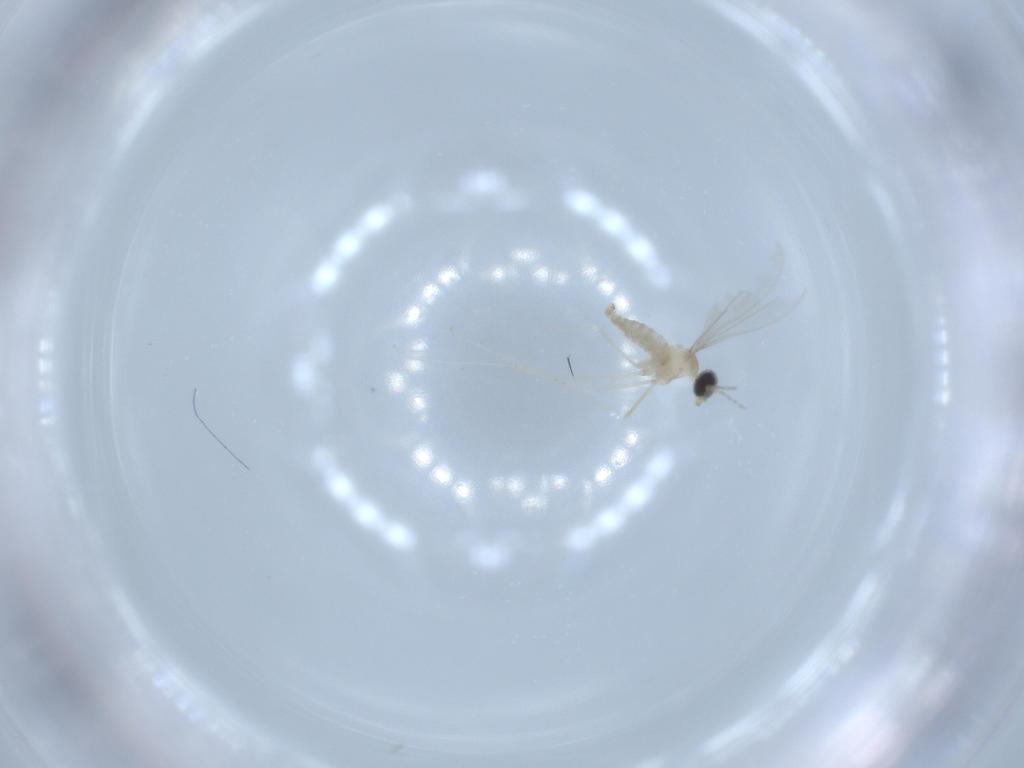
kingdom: Animalia
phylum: Arthropoda
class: Insecta
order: Diptera
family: Cecidomyiidae
